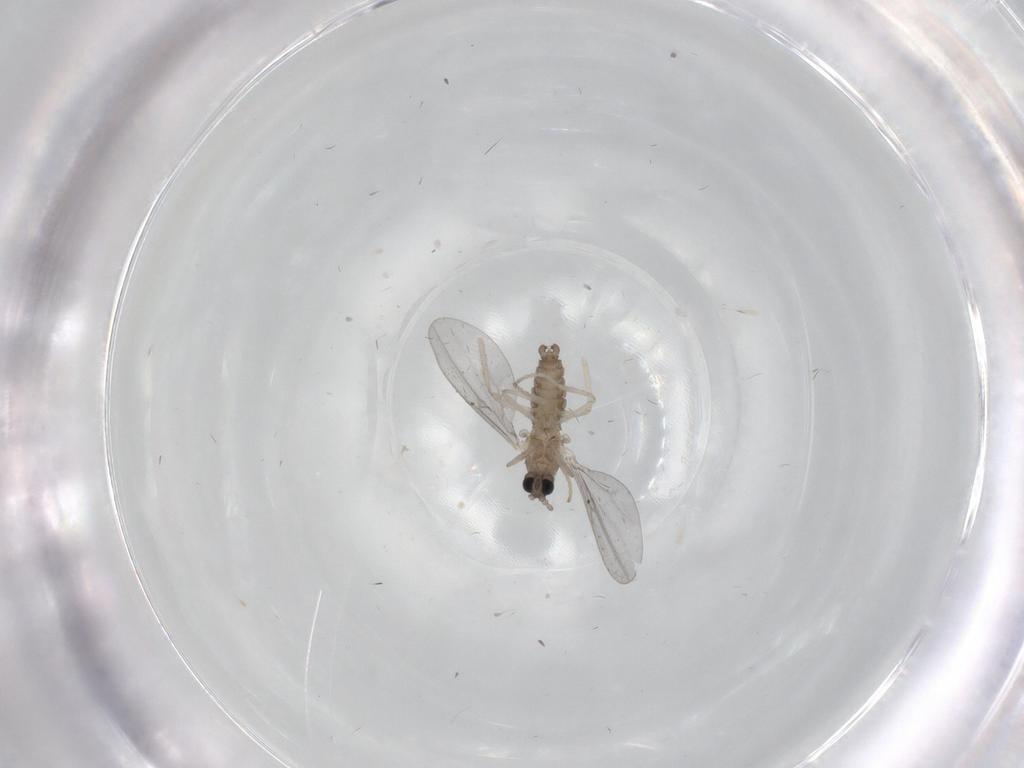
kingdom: Animalia
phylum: Arthropoda
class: Insecta
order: Diptera
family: Cecidomyiidae
